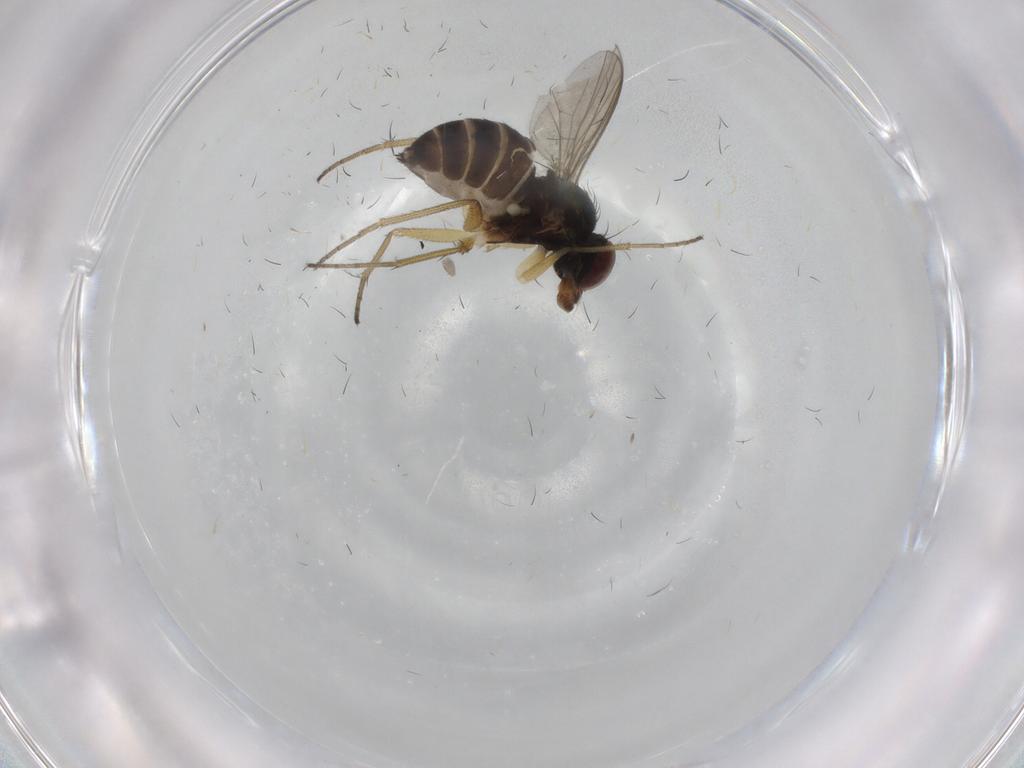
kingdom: Animalia
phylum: Arthropoda
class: Insecta
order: Diptera
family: Dolichopodidae
